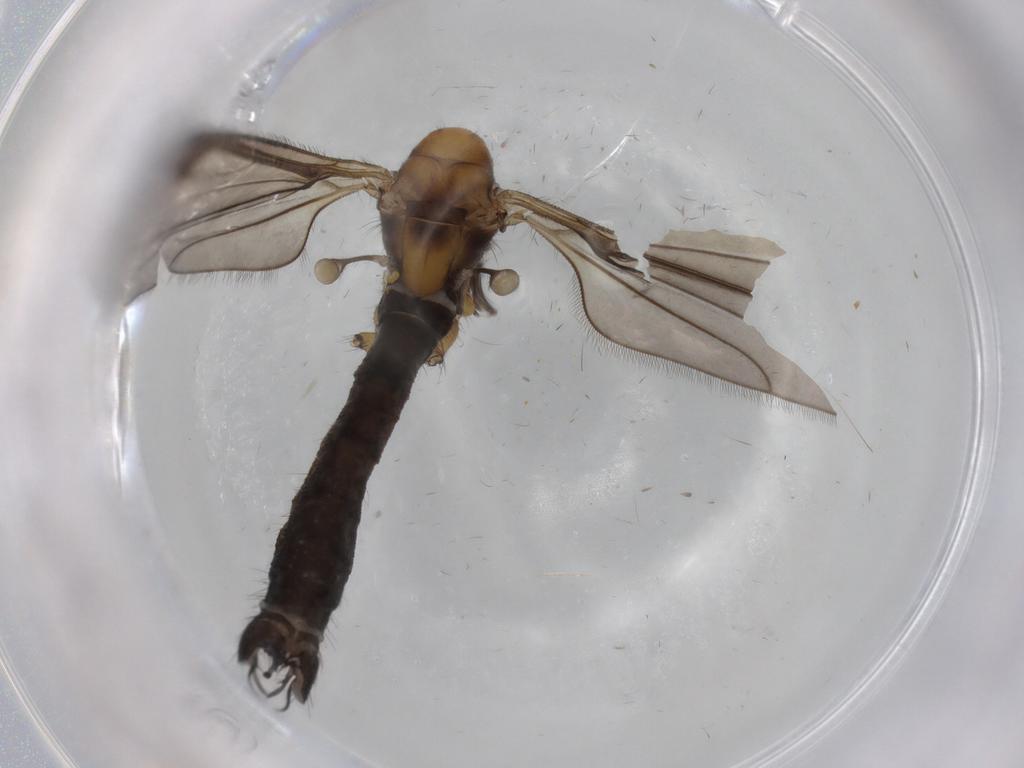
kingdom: Animalia
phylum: Arthropoda
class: Insecta
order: Diptera
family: Limoniidae
